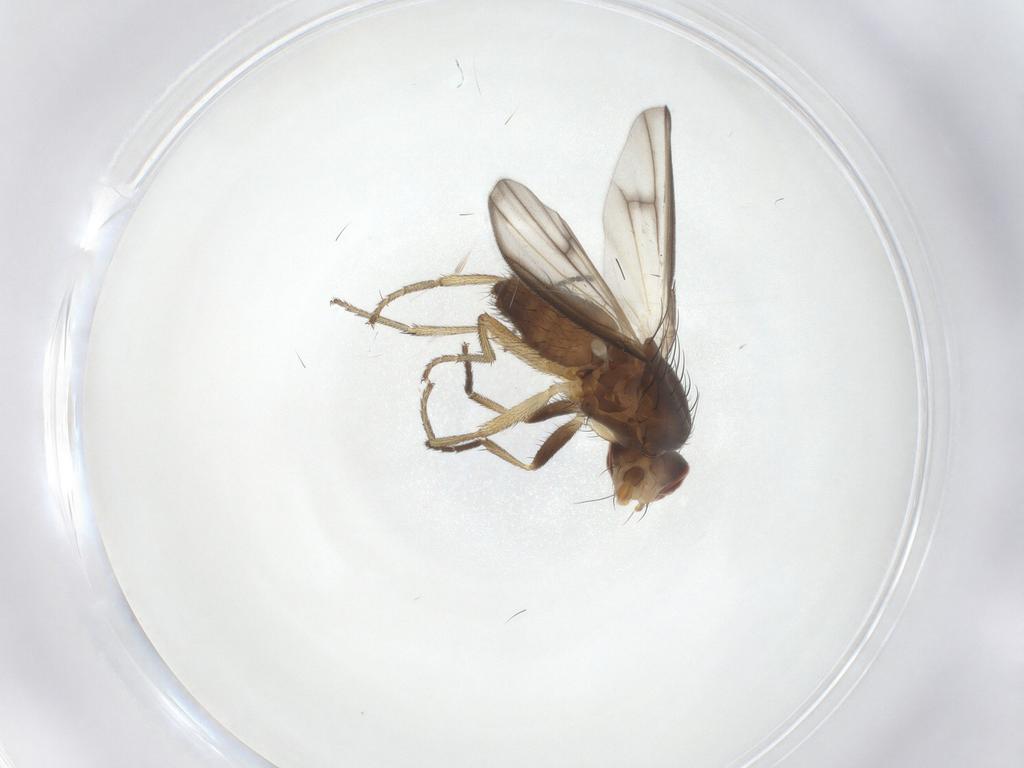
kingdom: Animalia
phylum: Arthropoda
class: Insecta
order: Diptera
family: Heleomyzidae
